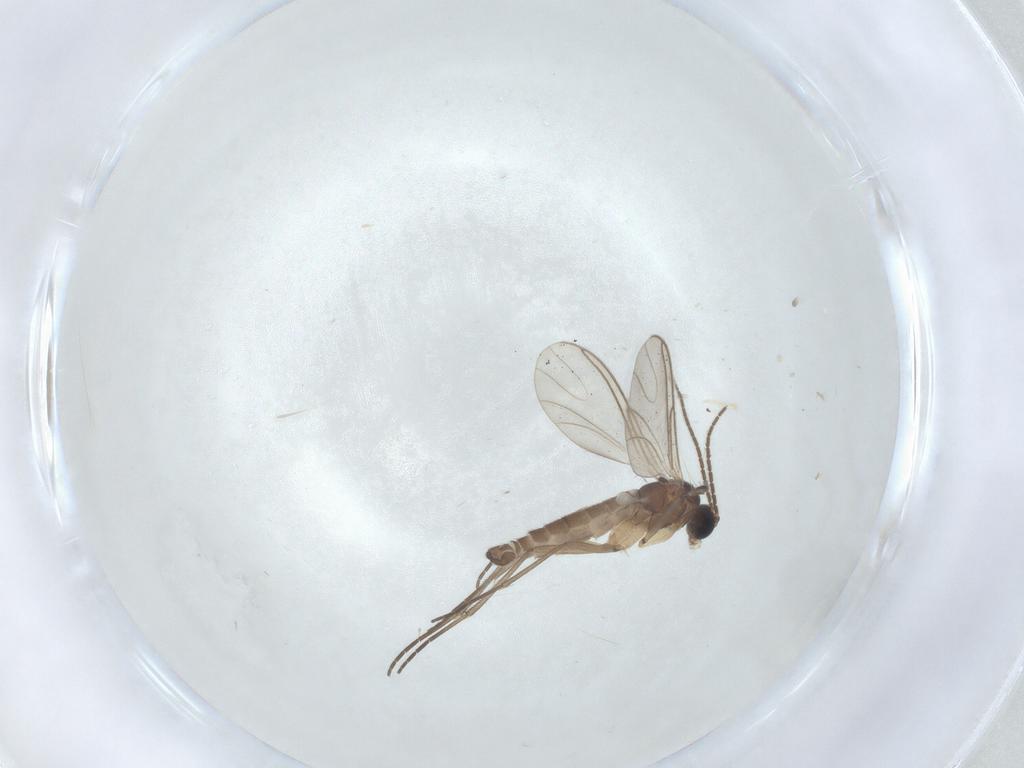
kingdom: Animalia
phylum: Arthropoda
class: Insecta
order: Diptera
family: Sciaridae
